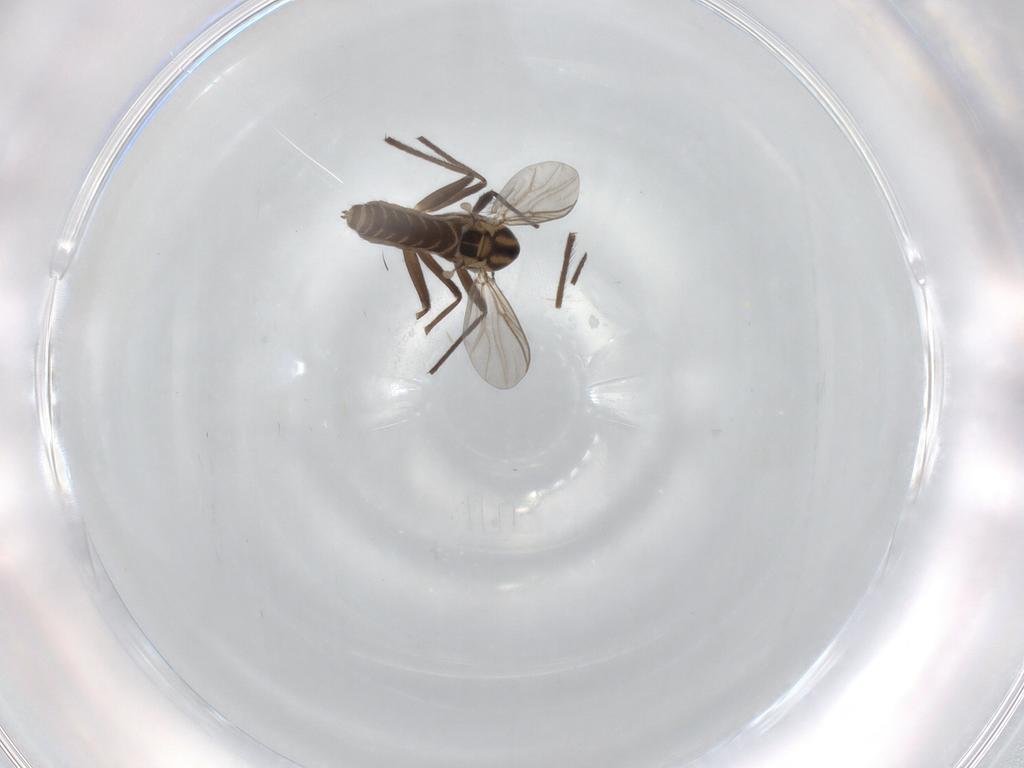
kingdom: Animalia
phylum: Arthropoda
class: Insecta
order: Diptera
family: Chironomidae
